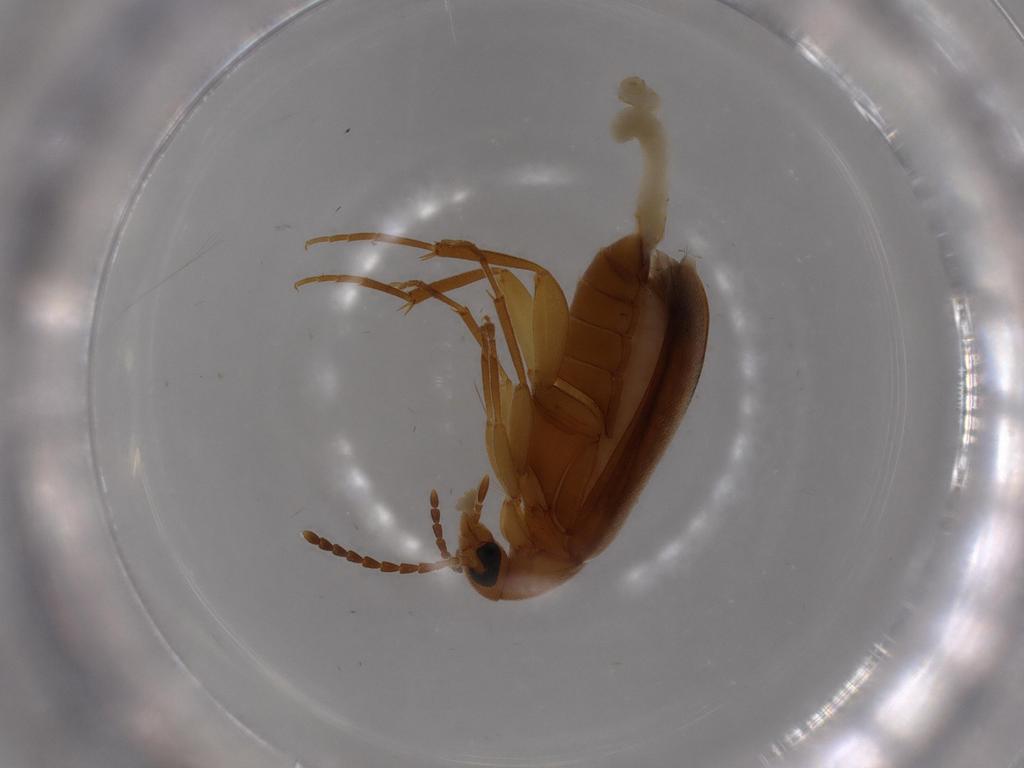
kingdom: Animalia
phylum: Arthropoda
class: Insecta
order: Coleoptera
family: Scraptiidae
